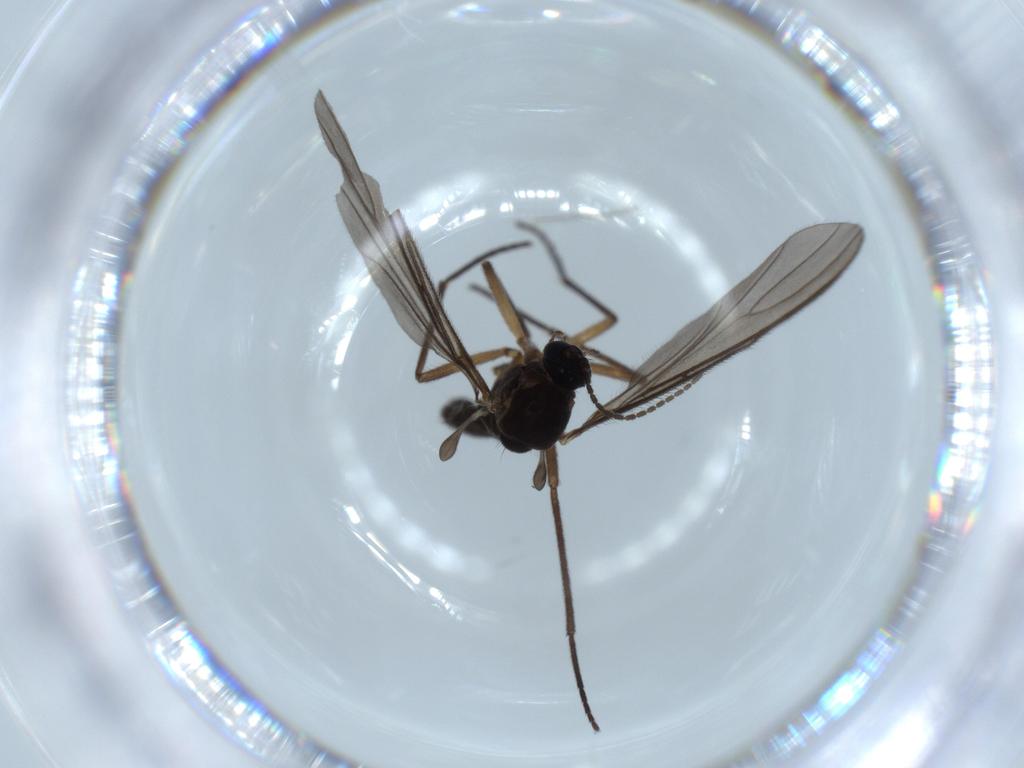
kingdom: Animalia
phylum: Arthropoda
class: Insecta
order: Diptera
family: Sciaridae
